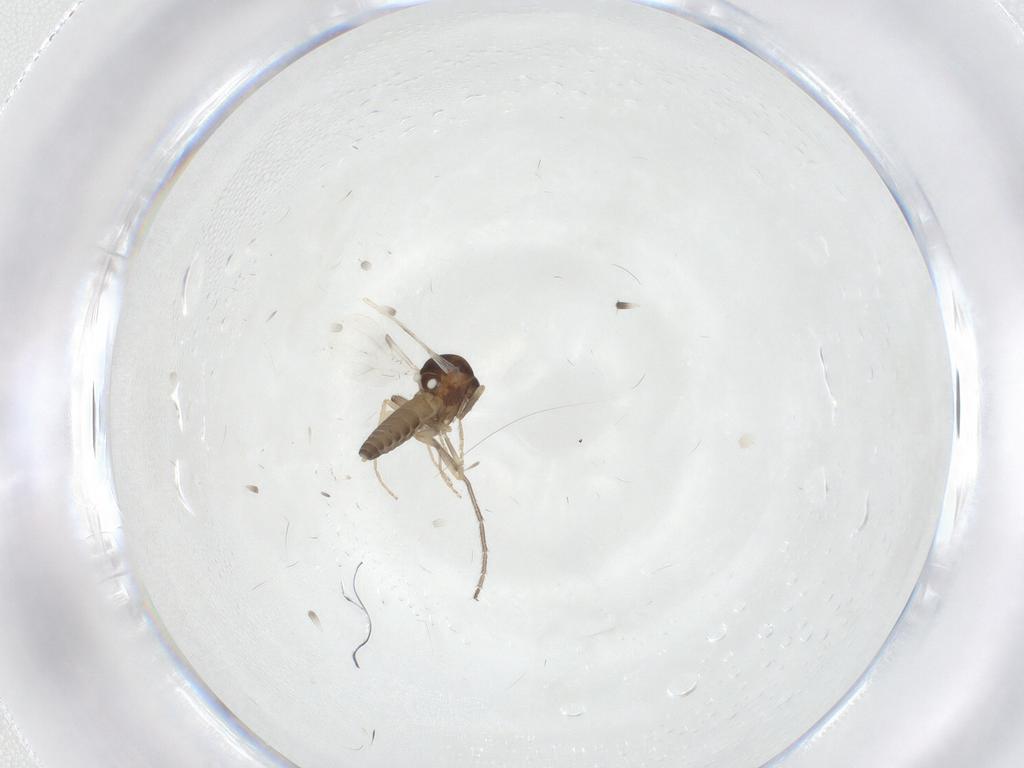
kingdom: Animalia
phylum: Arthropoda
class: Insecta
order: Diptera
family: Ceratopogonidae
